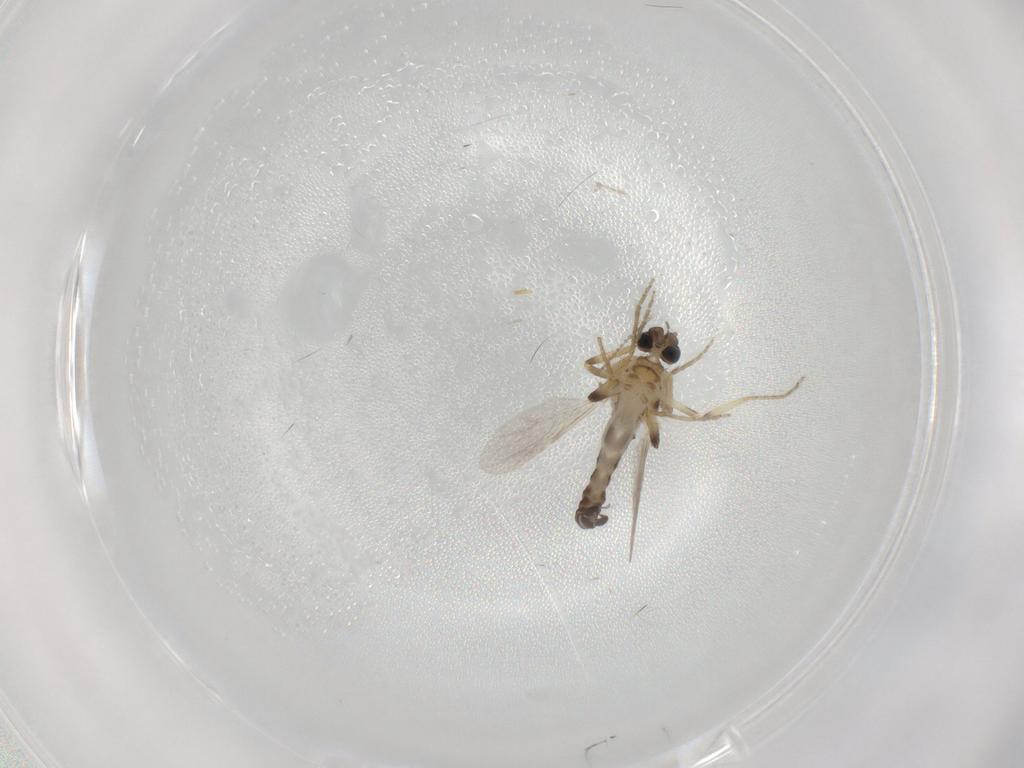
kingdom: Animalia
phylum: Arthropoda
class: Insecta
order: Diptera
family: Ceratopogonidae
